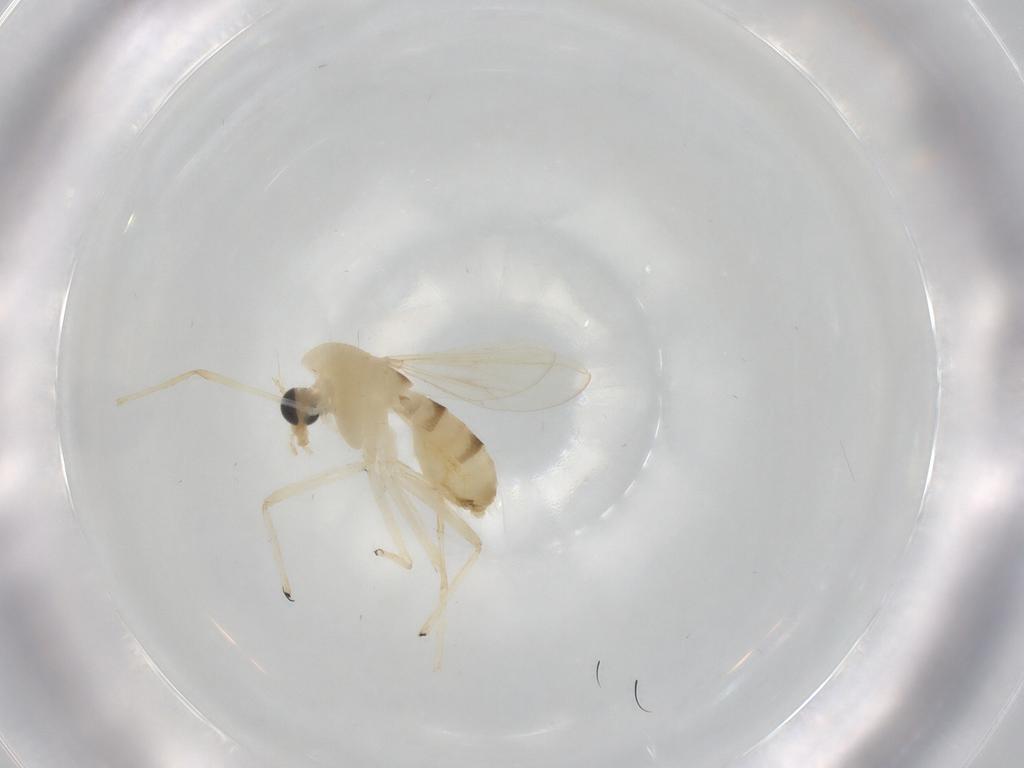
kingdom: Animalia
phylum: Arthropoda
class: Insecta
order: Diptera
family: Chironomidae
